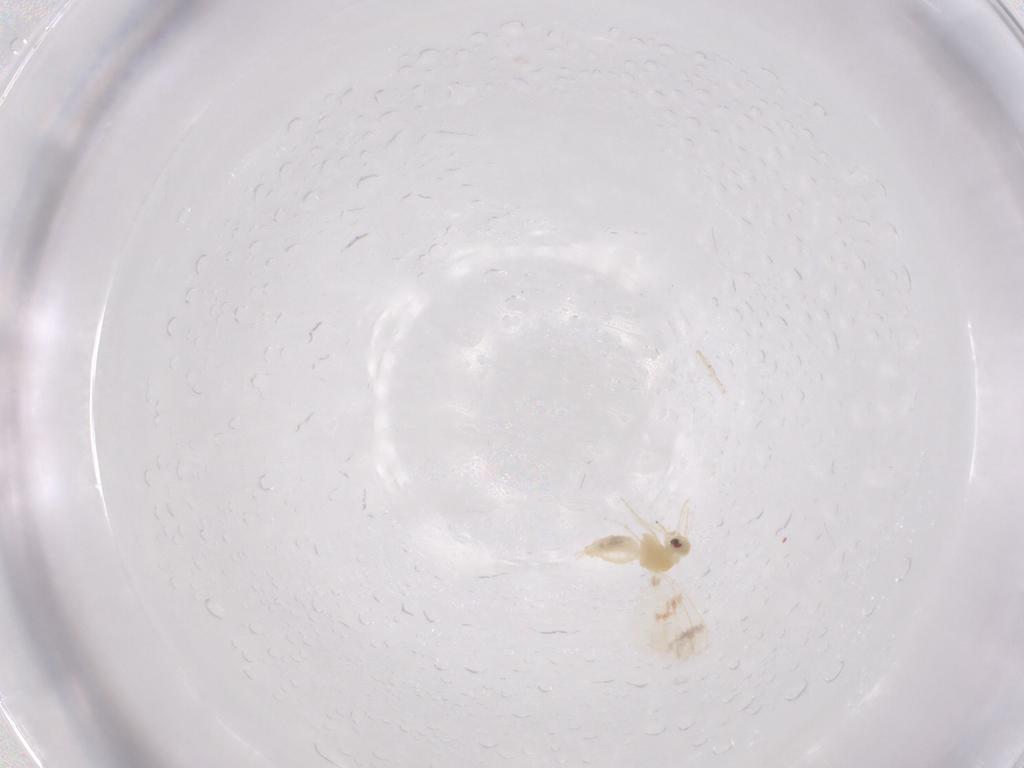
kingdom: Animalia
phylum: Arthropoda
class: Insecta
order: Hemiptera
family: Aleyrodidae
